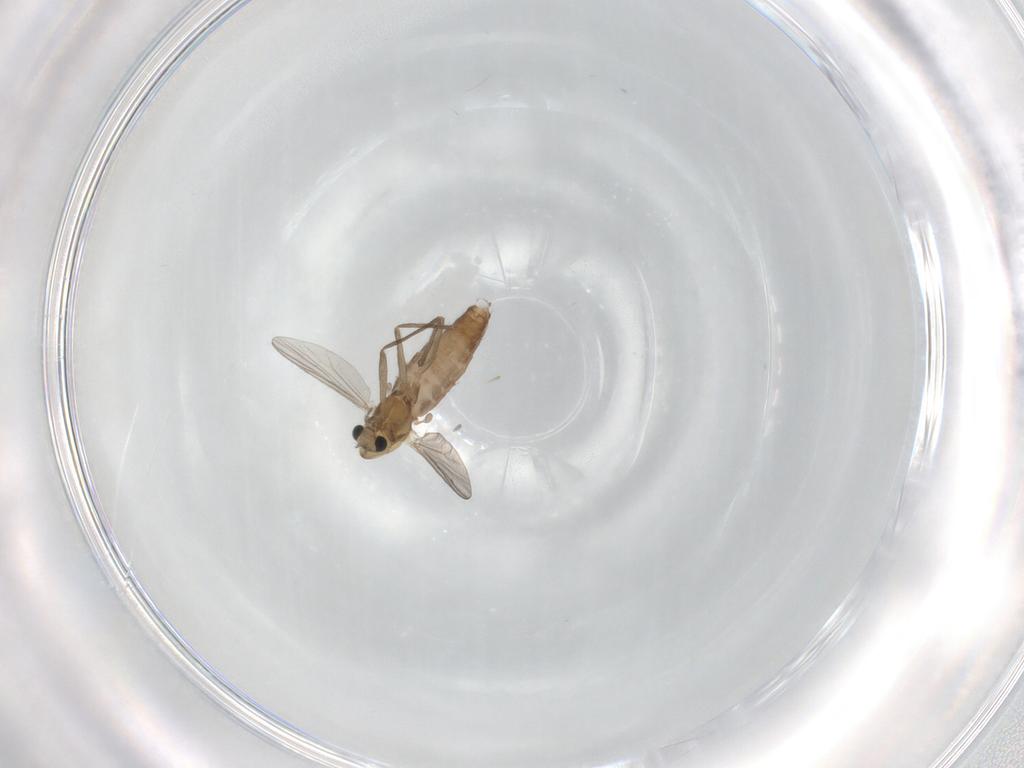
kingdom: Animalia
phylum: Arthropoda
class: Insecta
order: Diptera
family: Chironomidae
